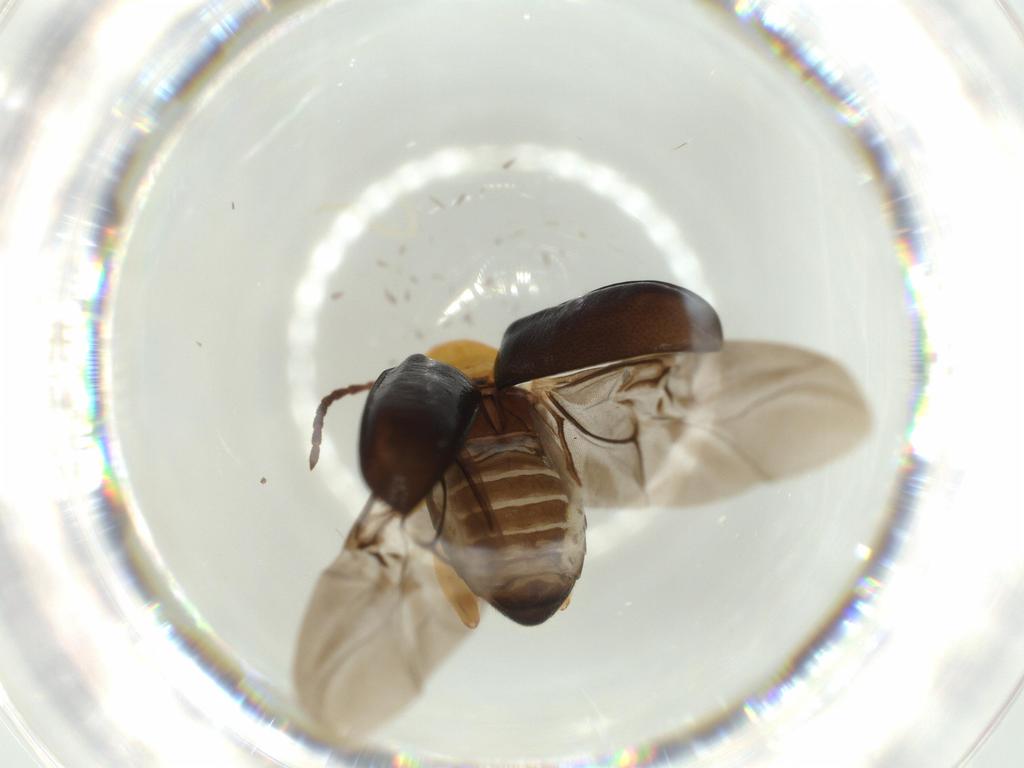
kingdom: Animalia
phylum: Arthropoda
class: Insecta
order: Coleoptera
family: Chrysomelidae
